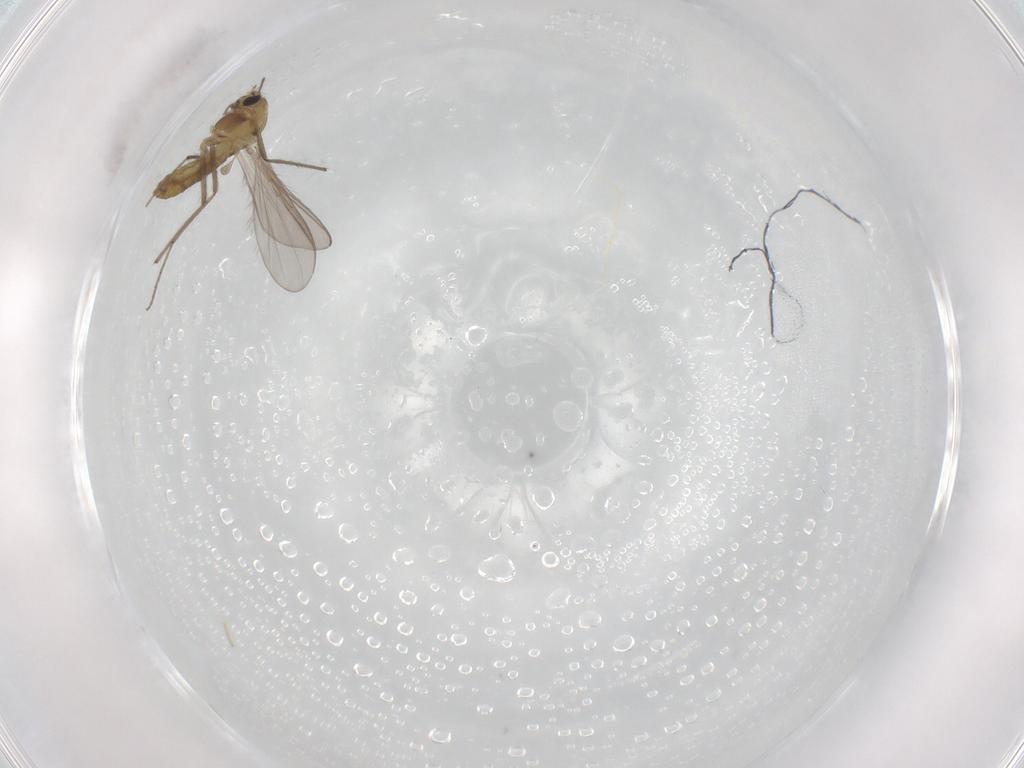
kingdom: Animalia
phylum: Arthropoda
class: Insecta
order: Diptera
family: Chironomidae
